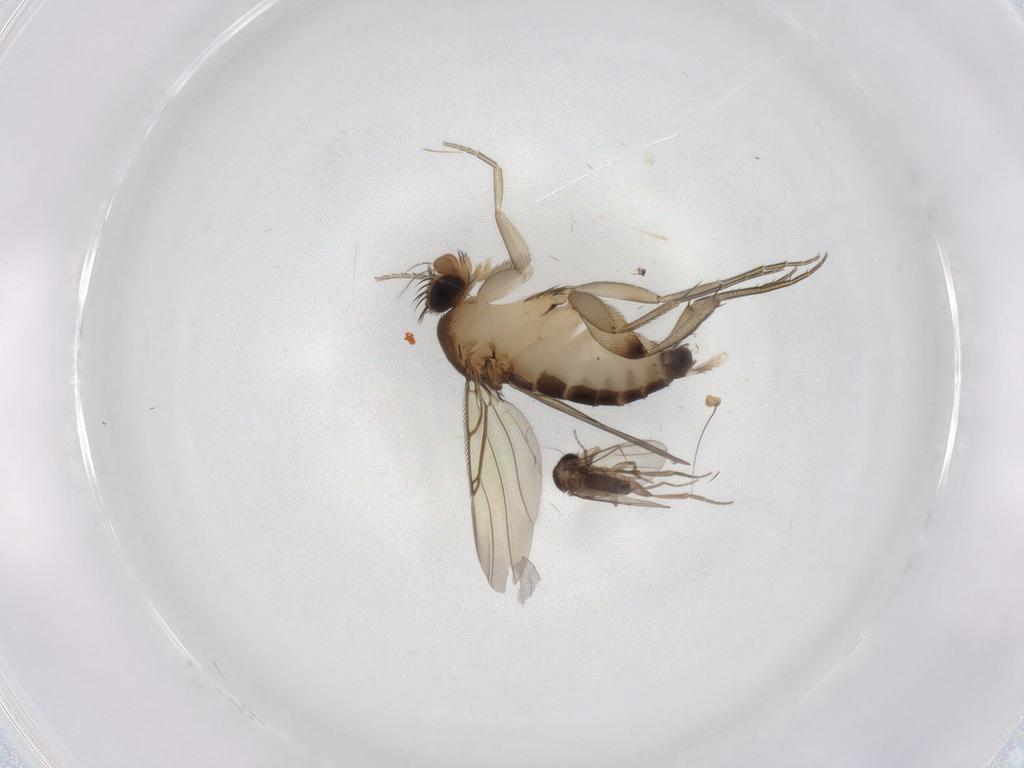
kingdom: Animalia
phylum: Arthropoda
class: Insecta
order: Diptera
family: Phoridae
